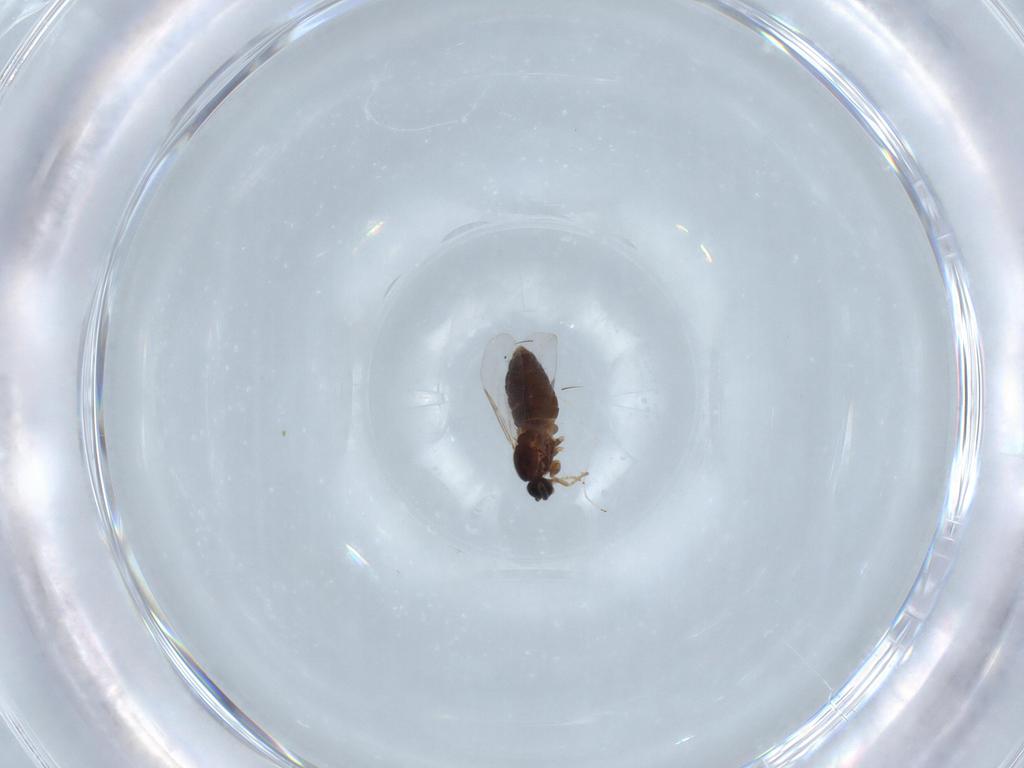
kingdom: Animalia
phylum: Arthropoda
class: Insecta
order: Diptera
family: Scatopsidae
